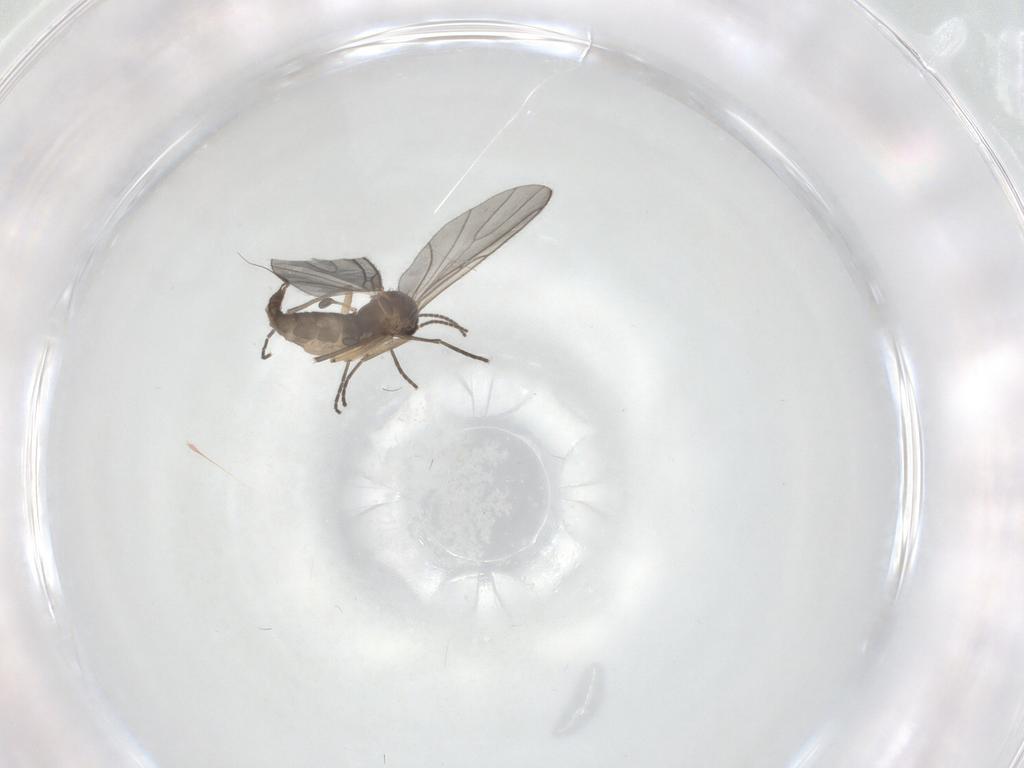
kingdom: Animalia
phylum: Arthropoda
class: Insecta
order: Diptera
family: Sciaridae
